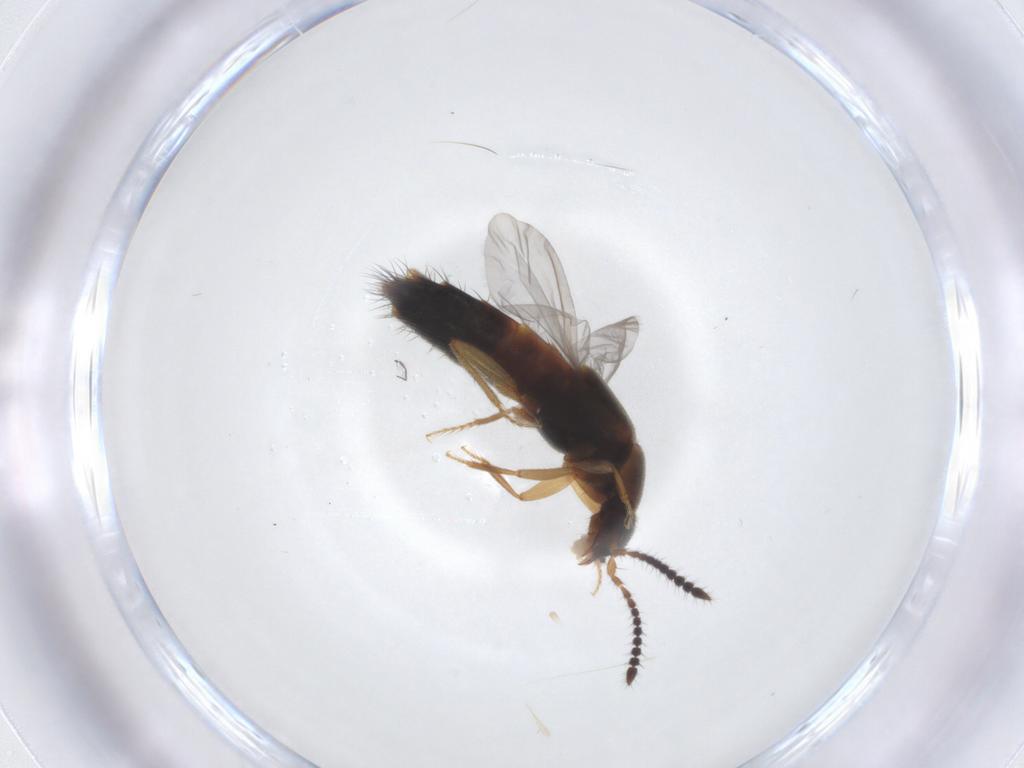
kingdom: Animalia
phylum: Arthropoda
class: Insecta
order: Coleoptera
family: Staphylinidae
